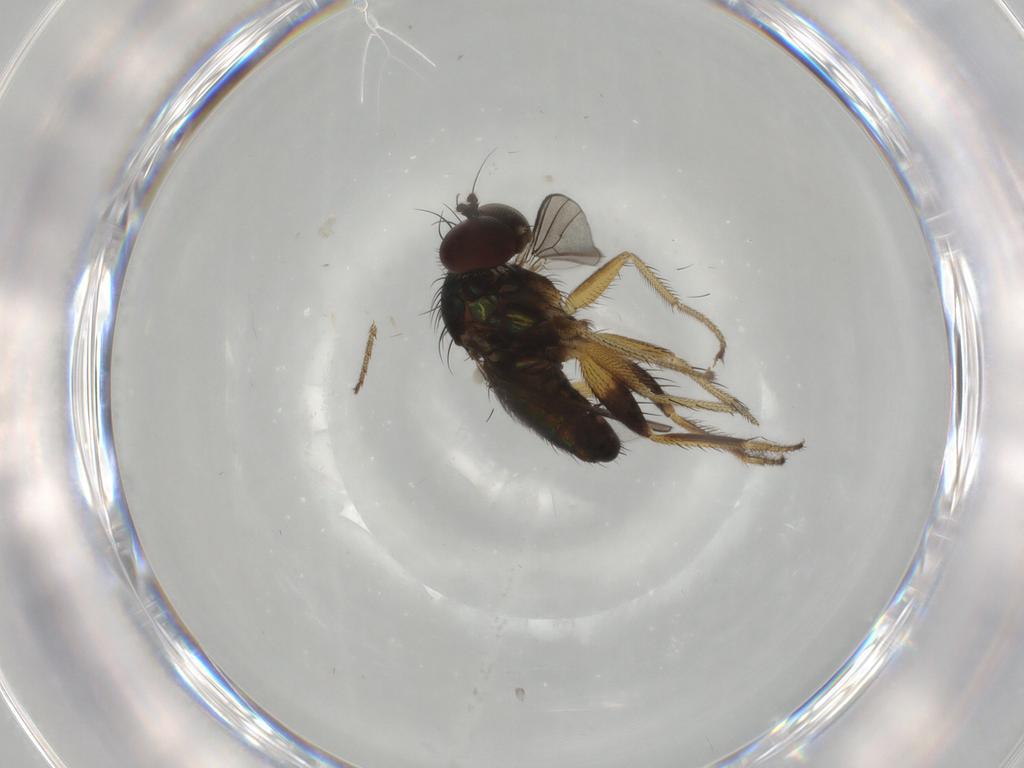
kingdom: Animalia
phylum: Arthropoda
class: Insecta
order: Diptera
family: Dolichopodidae
